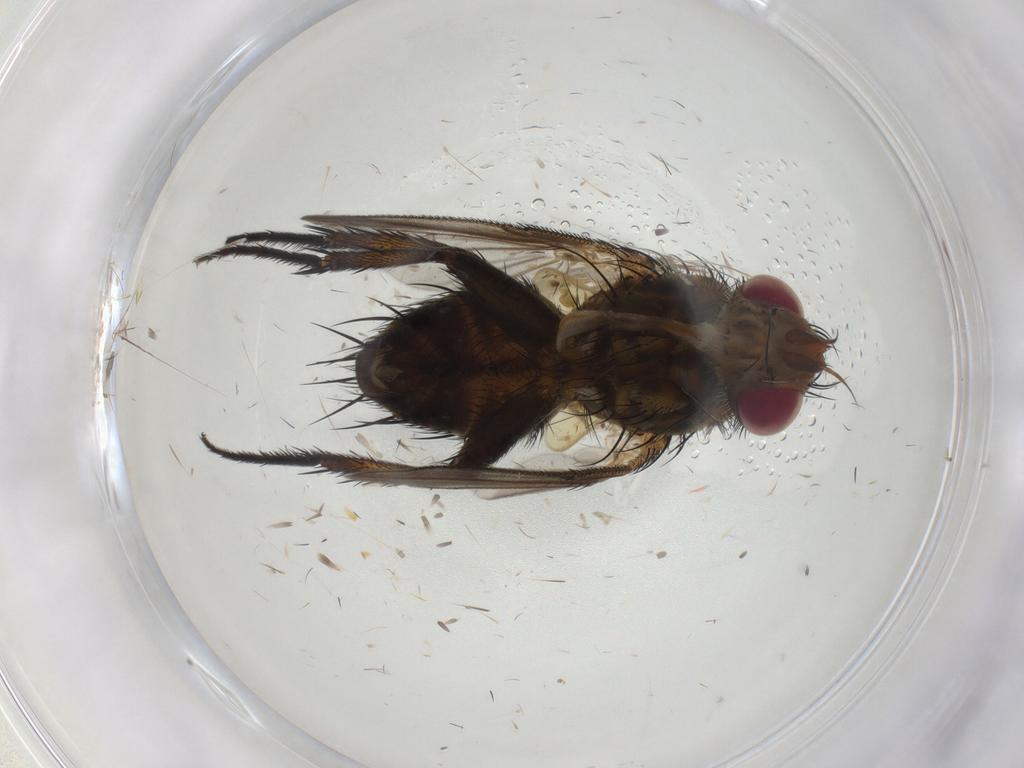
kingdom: Animalia
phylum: Arthropoda
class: Insecta
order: Diptera
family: Tachinidae
